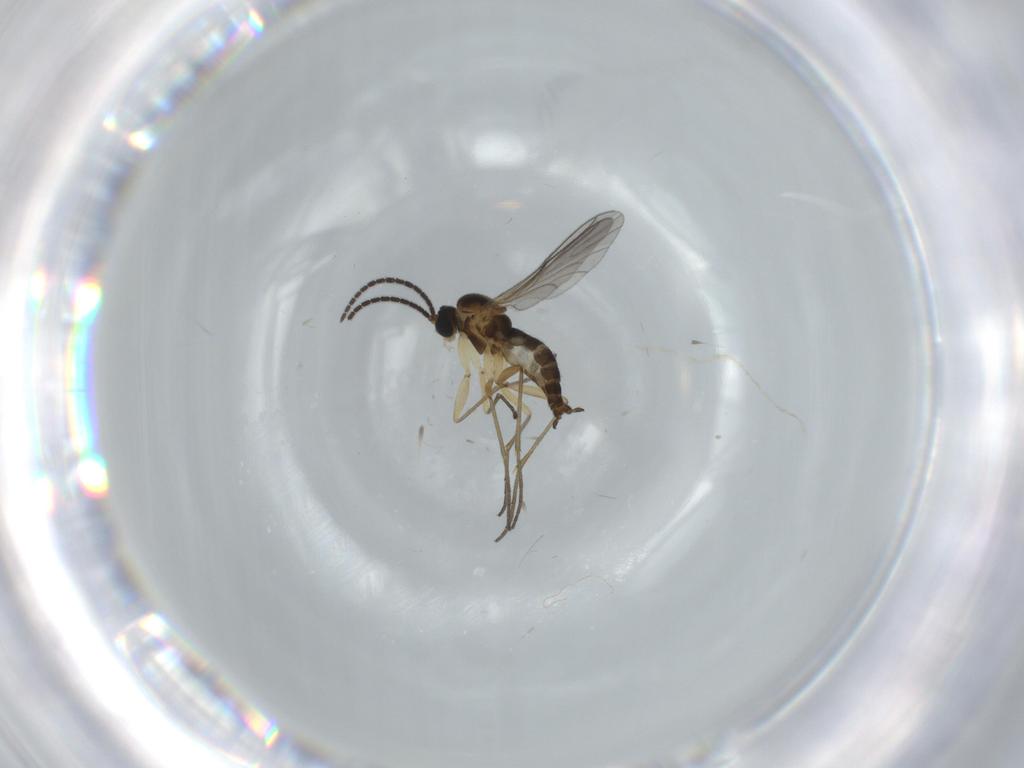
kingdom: Animalia
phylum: Arthropoda
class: Insecta
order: Diptera
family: Sciaridae
